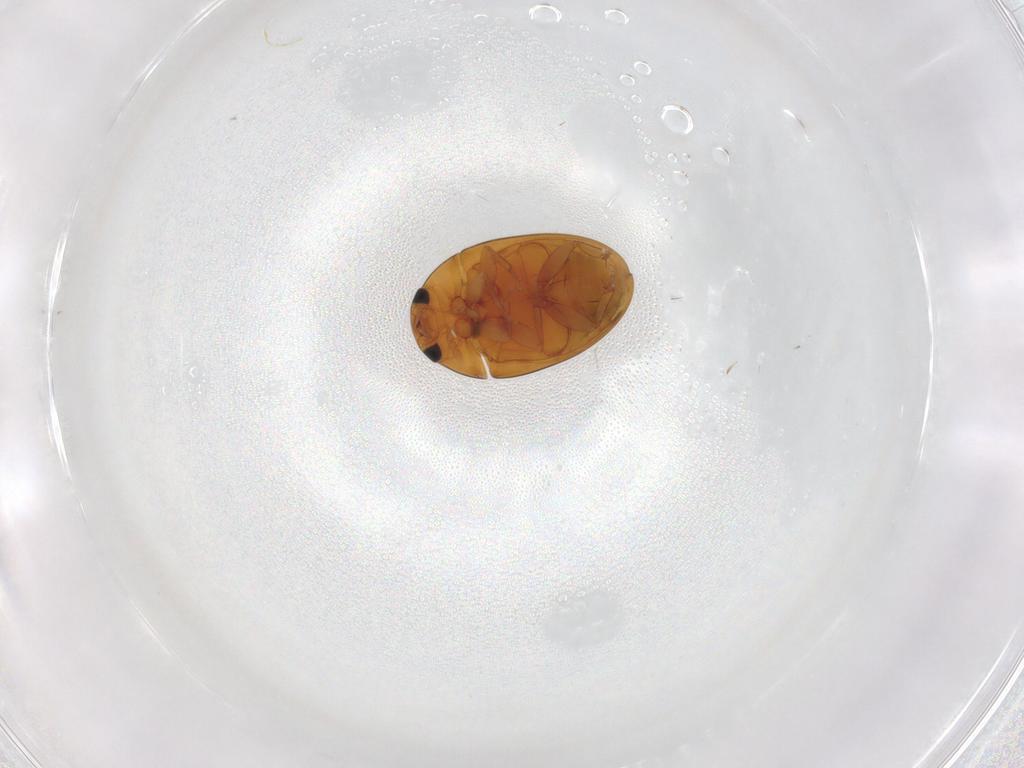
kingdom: Animalia
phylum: Arthropoda
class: Insecta
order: Coleoptera
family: Phalacridae
